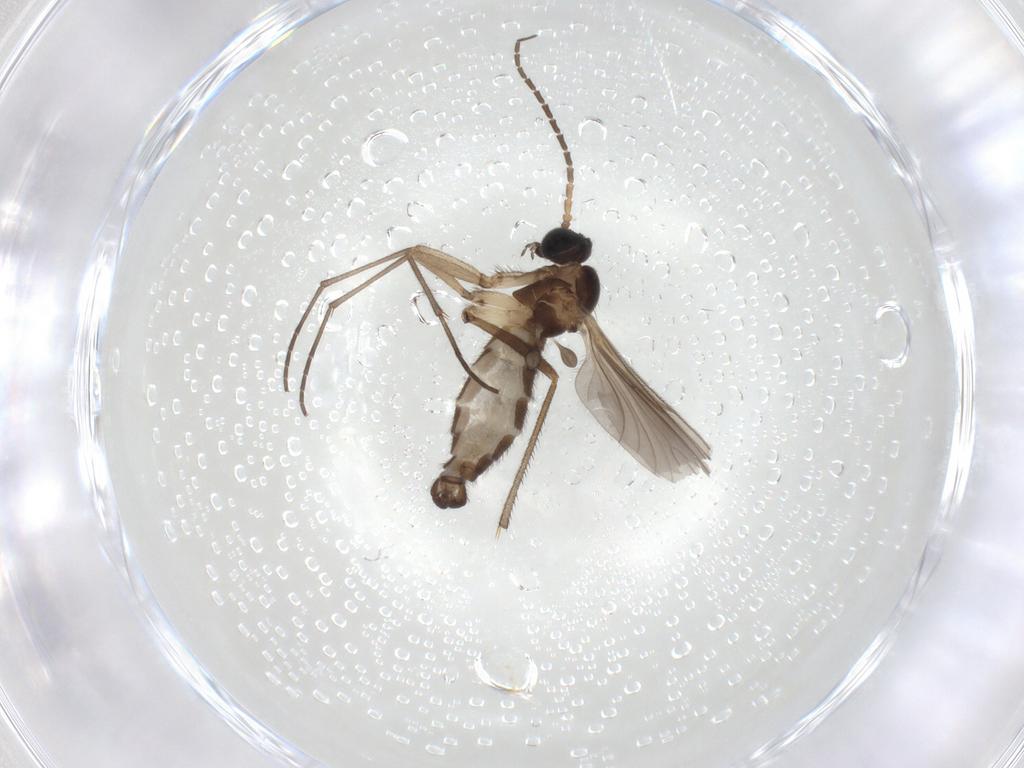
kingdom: Animalia
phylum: Arthropoda
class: Insecta
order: Diptera
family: Sciaridae
